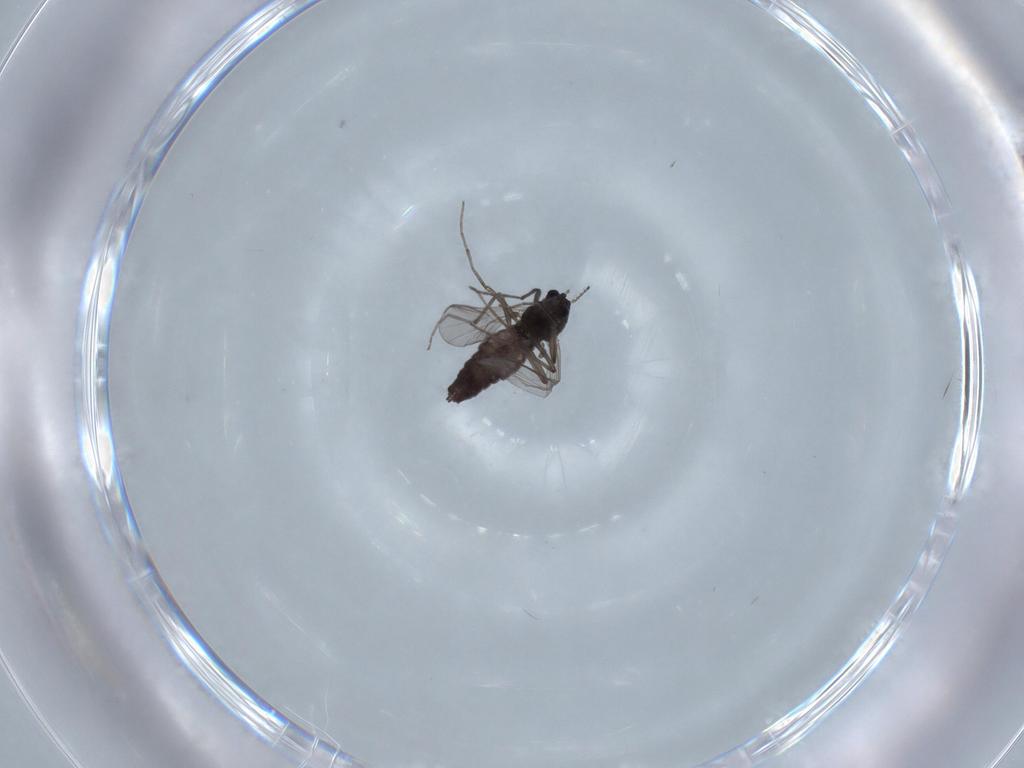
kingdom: Animalia
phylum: Arthropoda
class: Insecta
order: Diptera
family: Chironomidae
